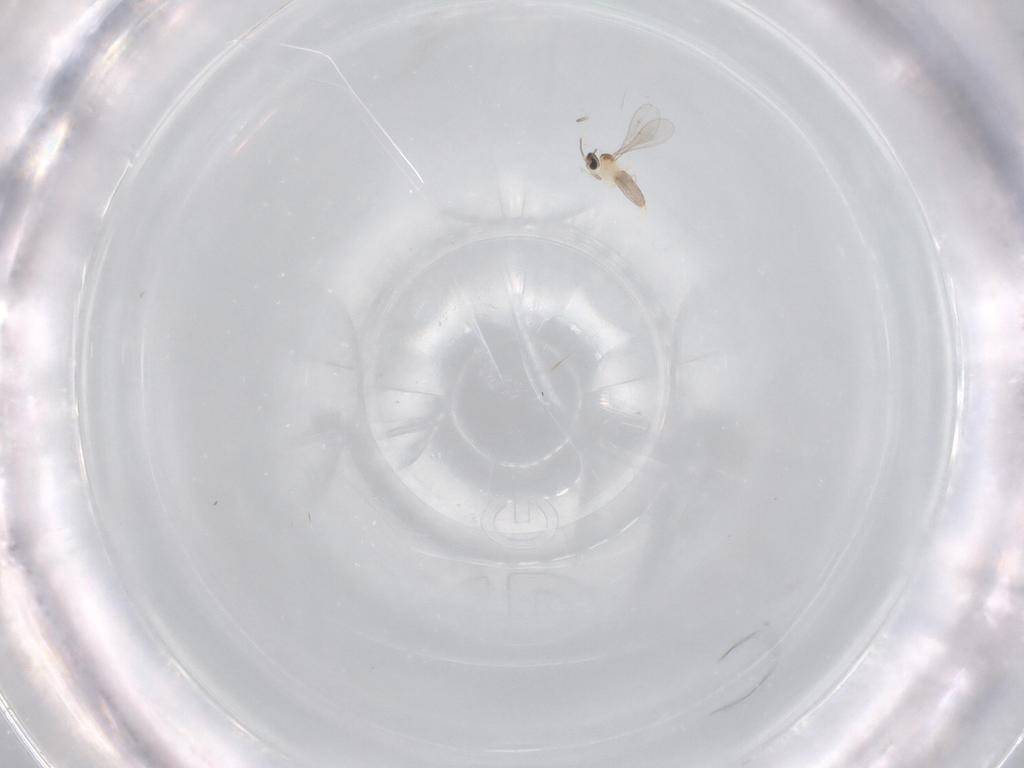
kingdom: Animalia
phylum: Arthropoda
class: Insecta
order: Diptera
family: Cecidomyiidae
